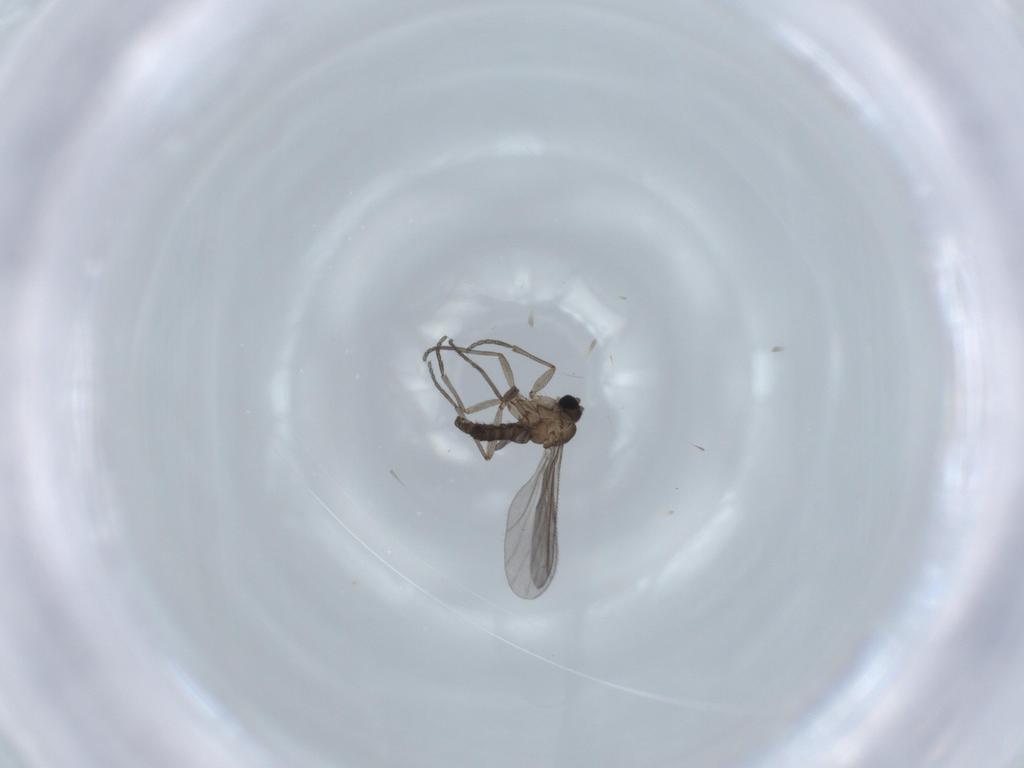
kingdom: Animalia
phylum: Arthropoda
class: Insecta
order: Diptera
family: Sciaridae
